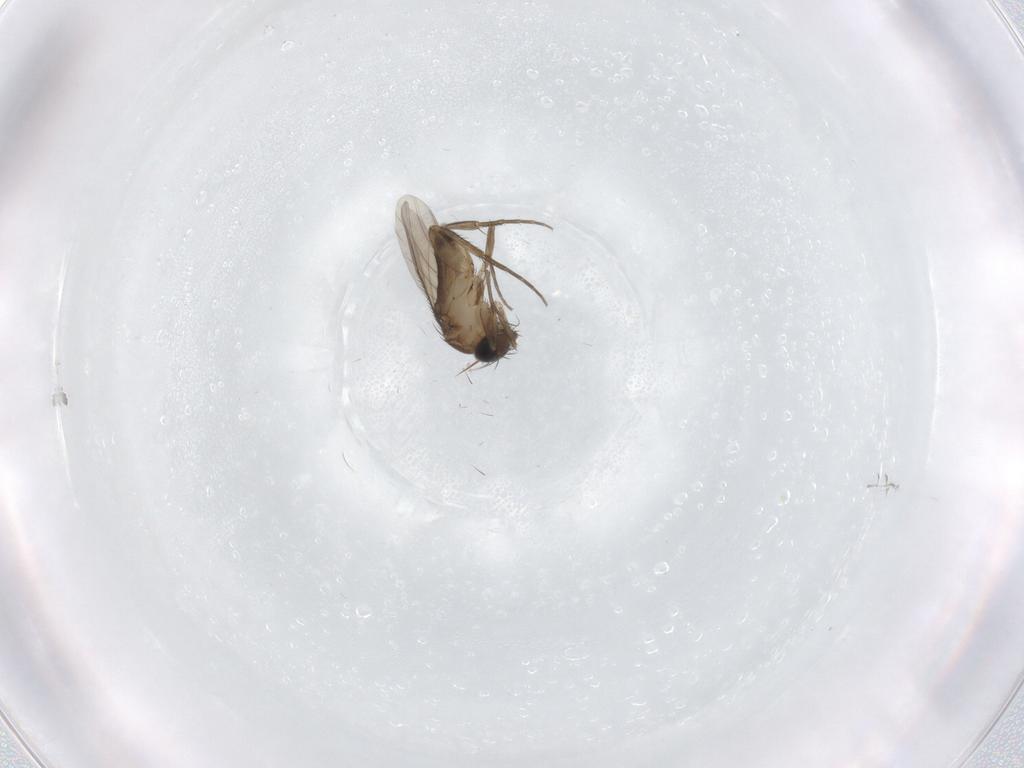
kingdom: Animalia
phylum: Arthropoda
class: Insecta
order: Diptera
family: Phoridae
